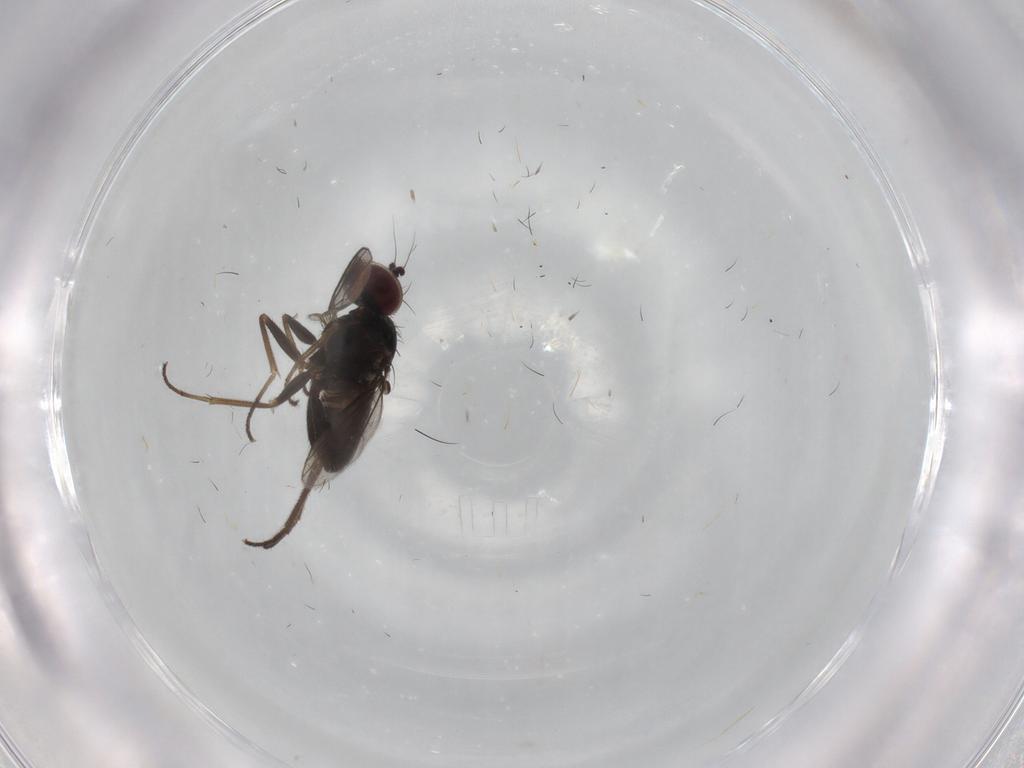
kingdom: Animalia
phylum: Arthropoda
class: Insecta
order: Diptera
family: Dolichopodidae
